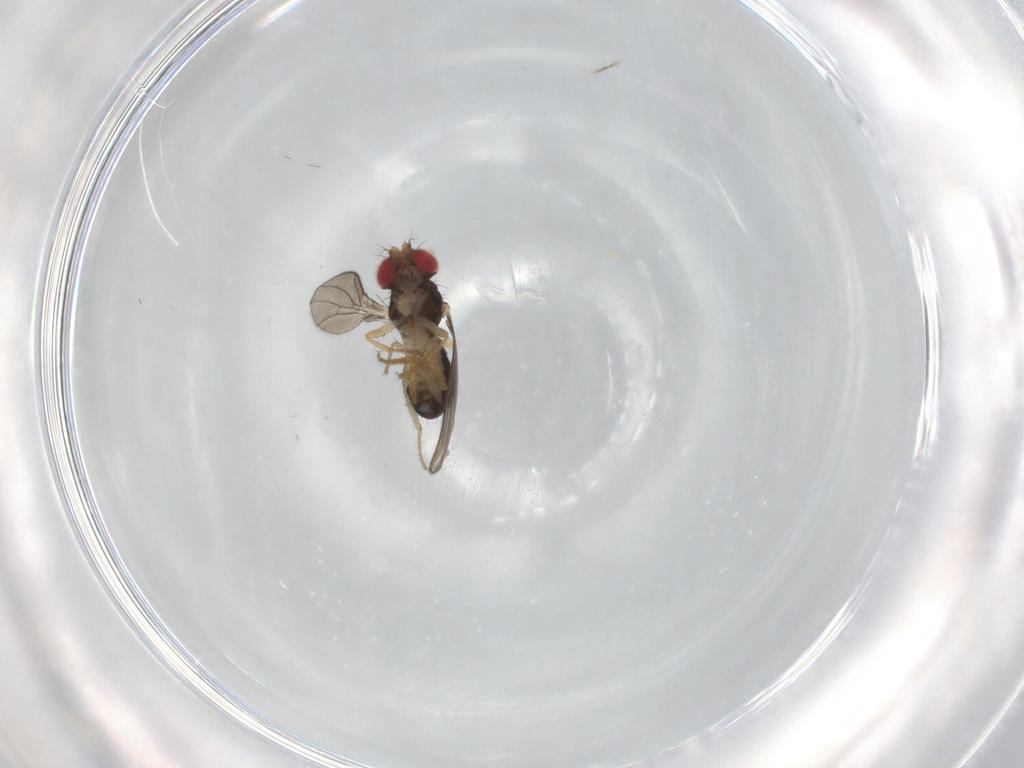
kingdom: Animalia
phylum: Arthropoda
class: Insecta
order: Diptera
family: Drosophilidae
